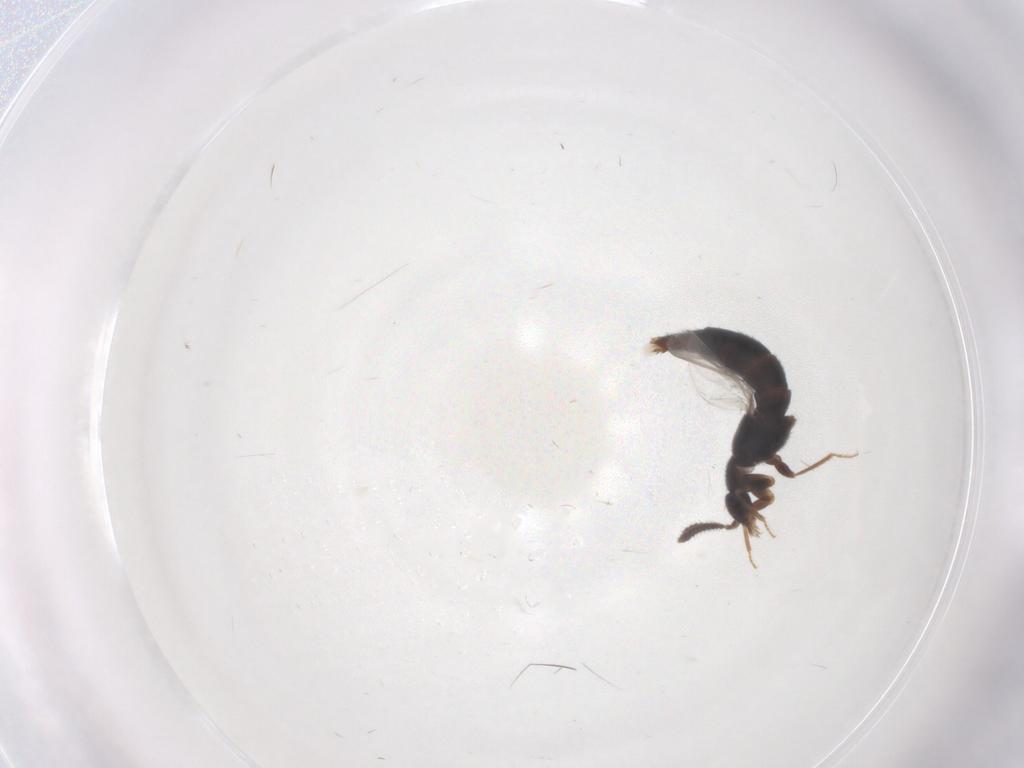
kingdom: Animalia
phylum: Arthropoda
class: Insecta
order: Coleoptera
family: Staphylinidae
